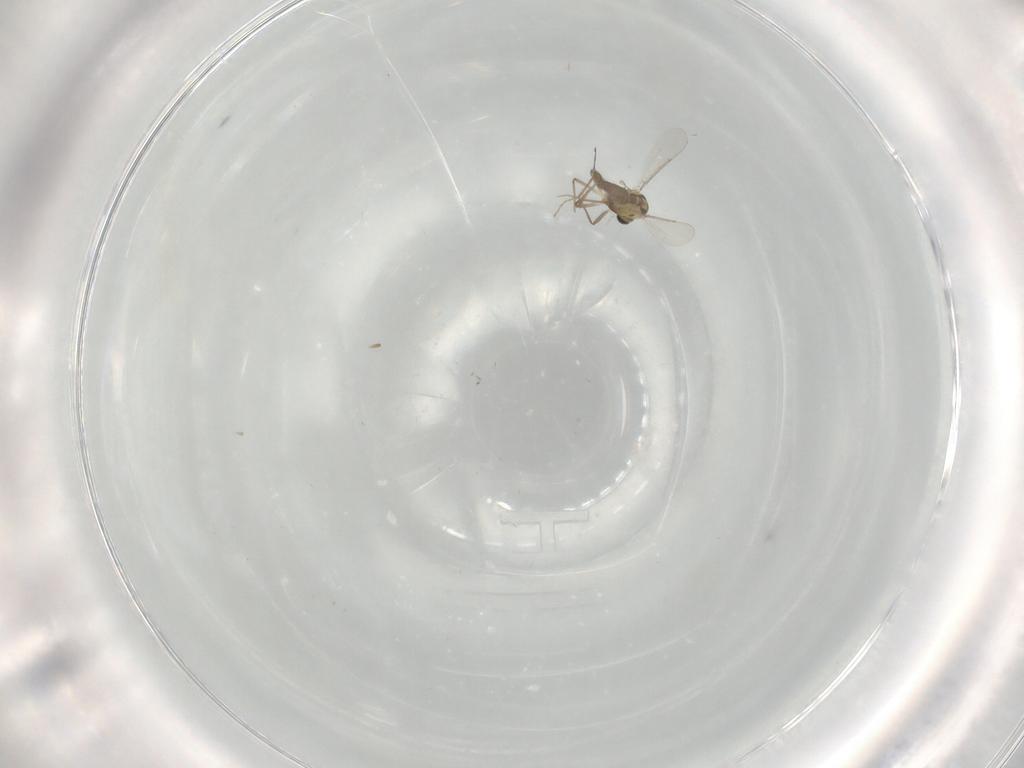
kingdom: Animalia
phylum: Arthropoda
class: Insecta
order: Diptera
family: Chironomidae
